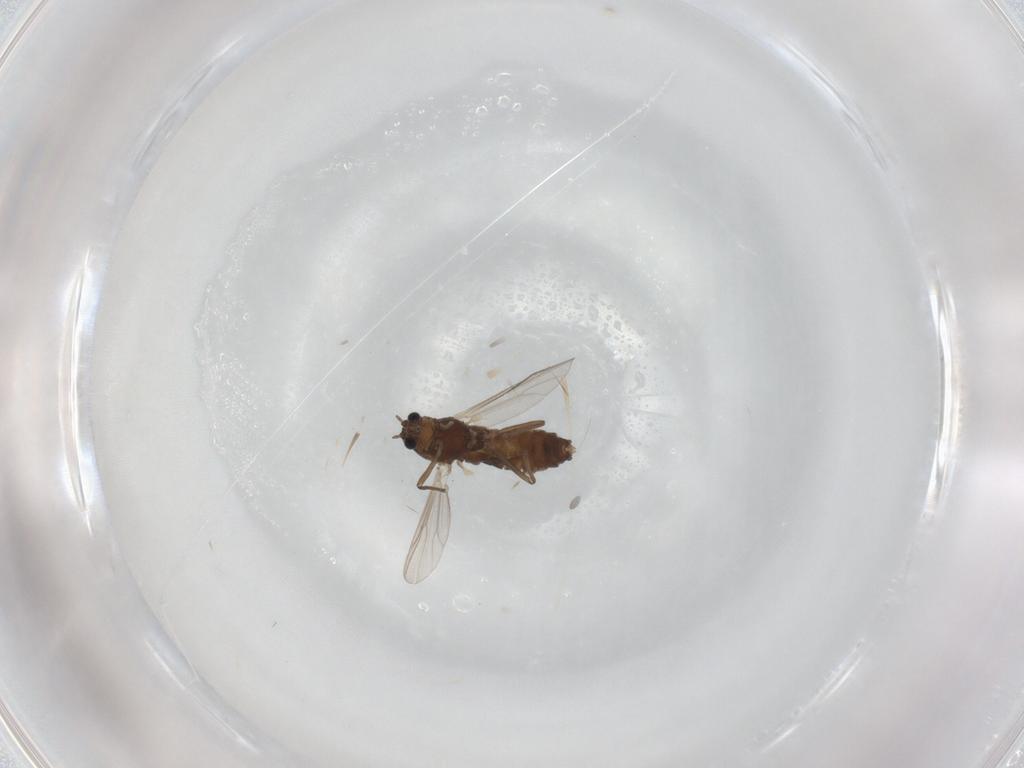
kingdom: Animalia
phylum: Arthropoda
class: Insecta
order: Diptera
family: Chironomidae
